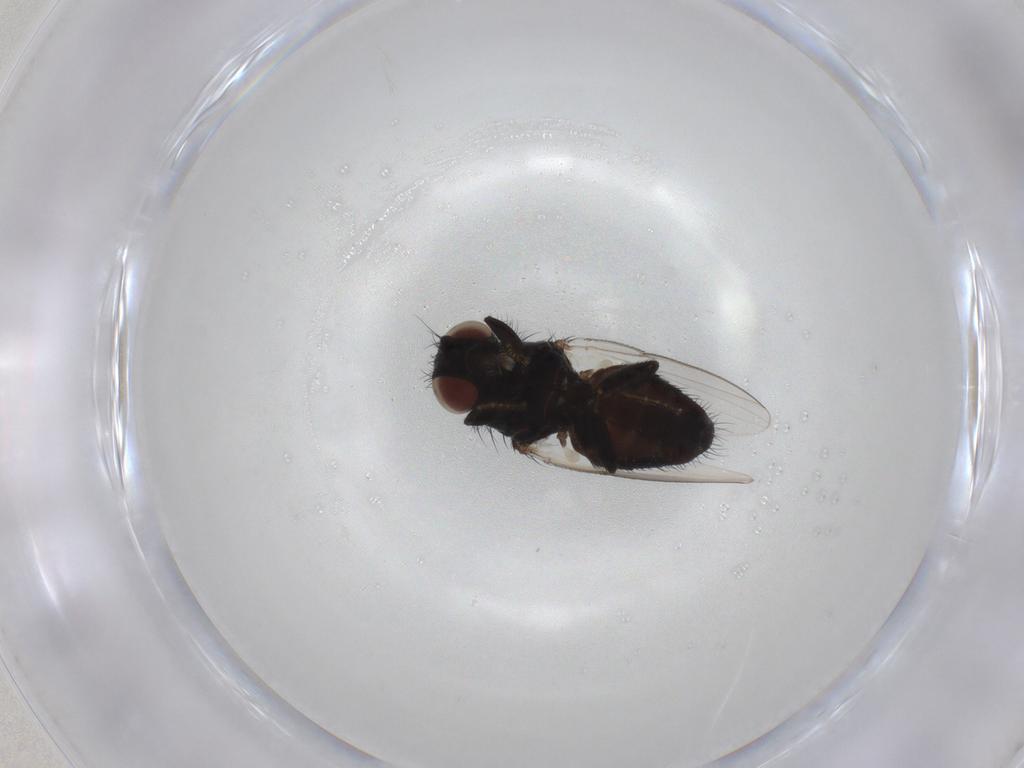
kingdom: Animalia
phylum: Arthropoda
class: Insecta
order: Diptera
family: Milichiidae
